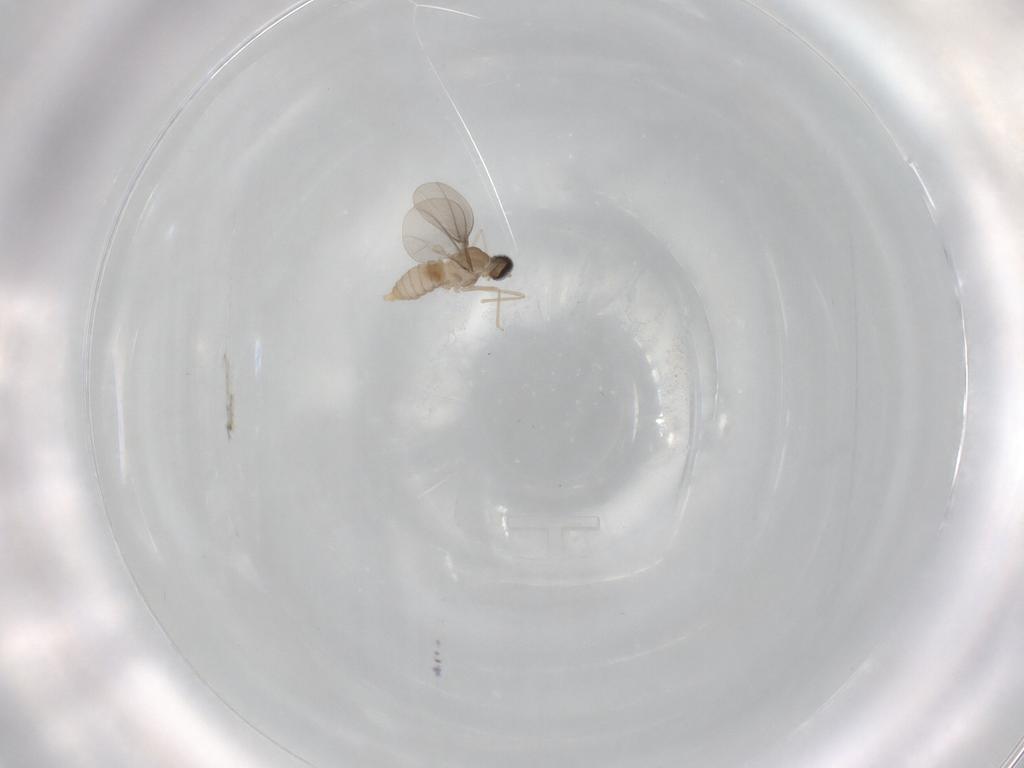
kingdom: Animalia
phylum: Arthropoda
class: Insecta
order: Diptera
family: Cecidomyiidae
